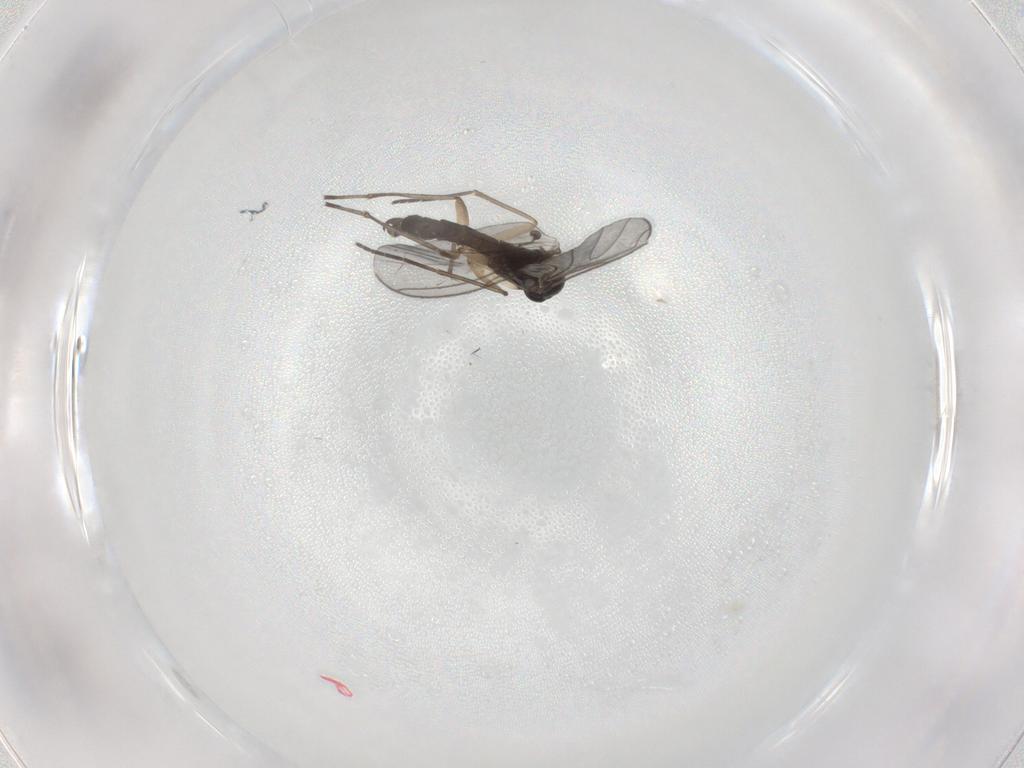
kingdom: Animalia
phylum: Arthropoda
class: Insecta
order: Diptera
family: Sciaridae
